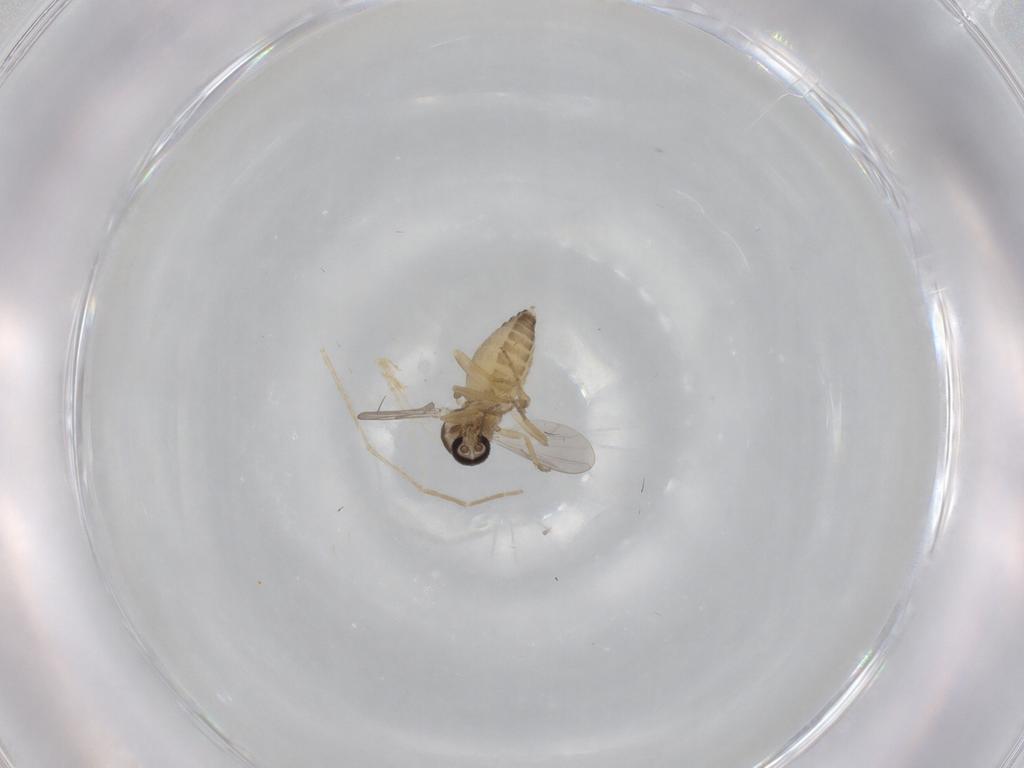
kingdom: Animalia
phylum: Arthropoda
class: Insecta
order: Diptera
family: Ceratopogonidae
